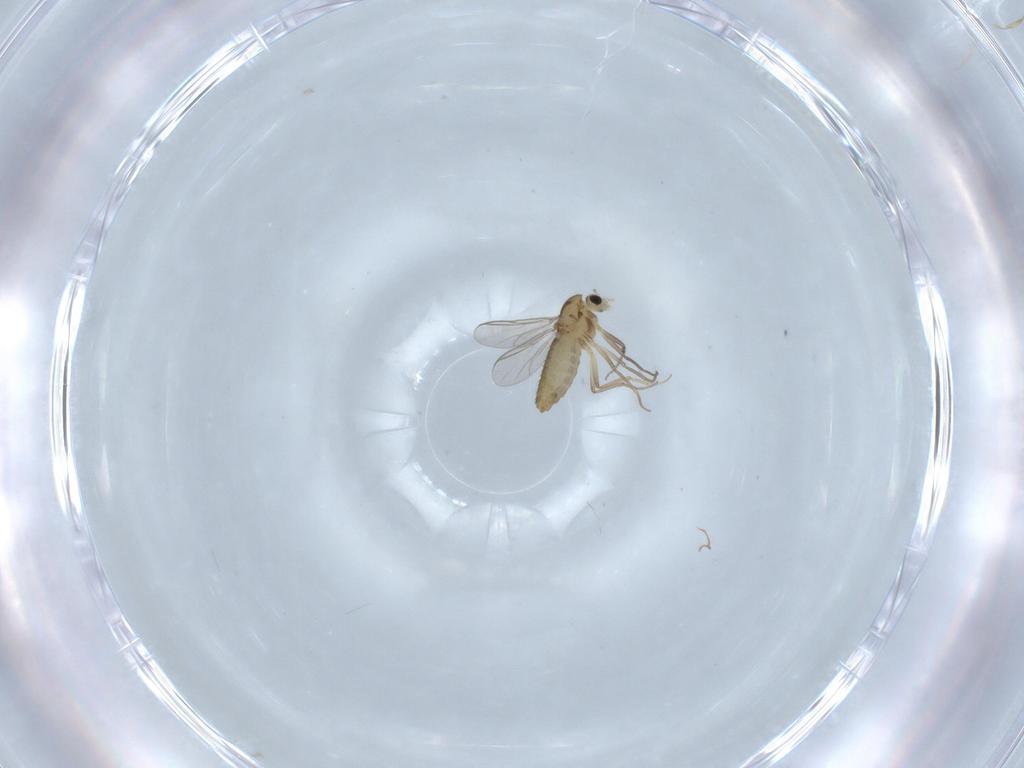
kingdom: Animalia
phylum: Arthropoda
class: Insecta
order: Diptera
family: Chironomidae
